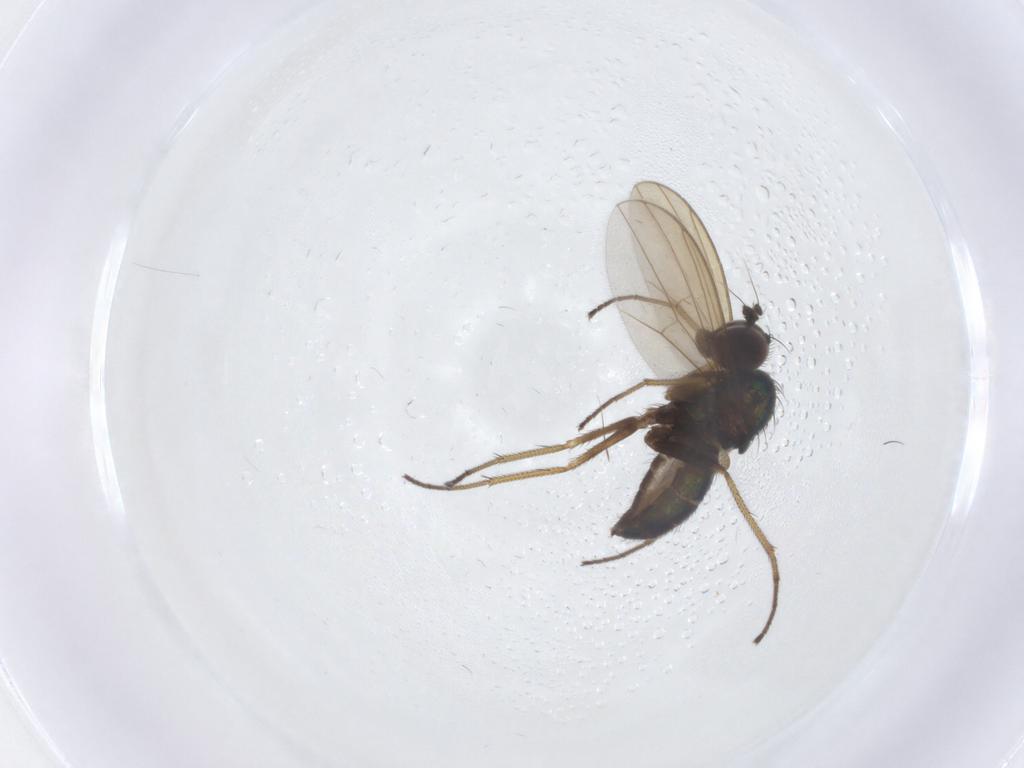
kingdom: Animalia
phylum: Arthropoda
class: Insecta
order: Diptera
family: Dolichopodidae
